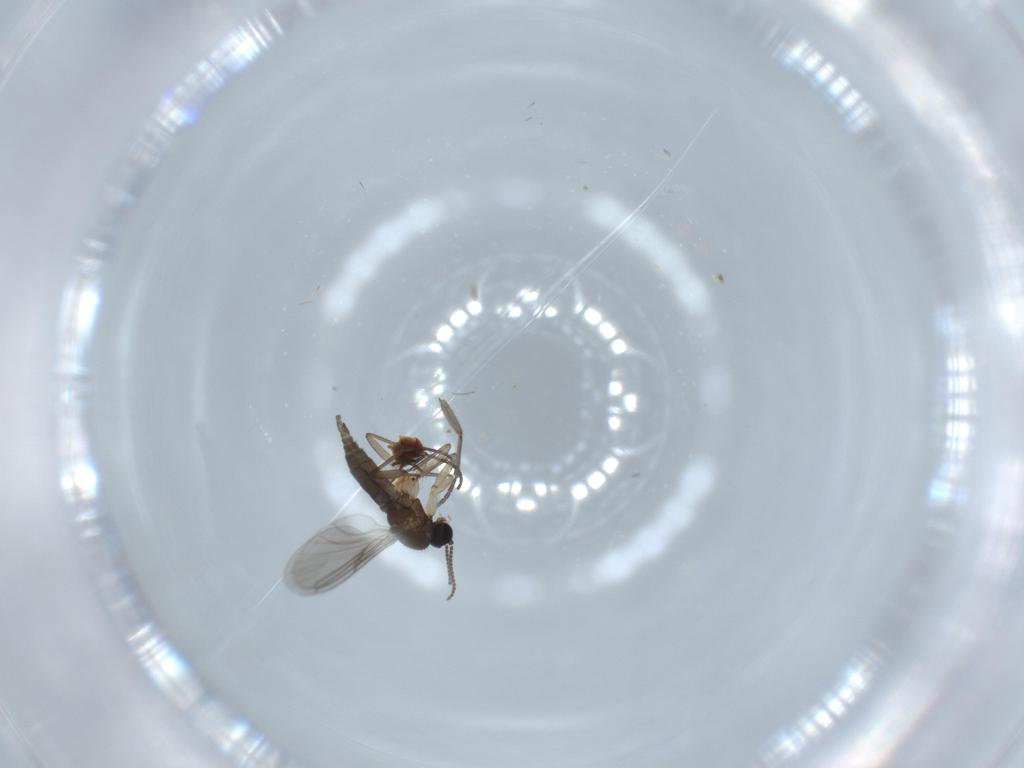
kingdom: Animalia
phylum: Arthropoda
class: Insecta
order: Diptera
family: Sciaridae
